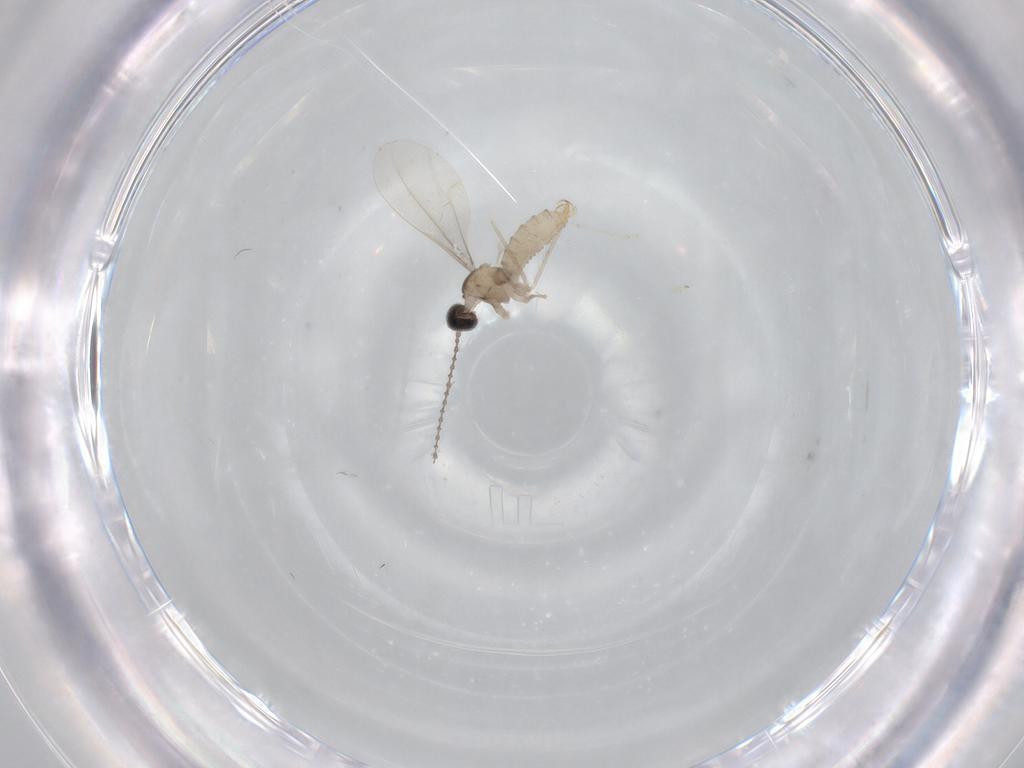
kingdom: Animalia
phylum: Arthropoda
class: Insecta
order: Diptera
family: Cecidomyiidae
